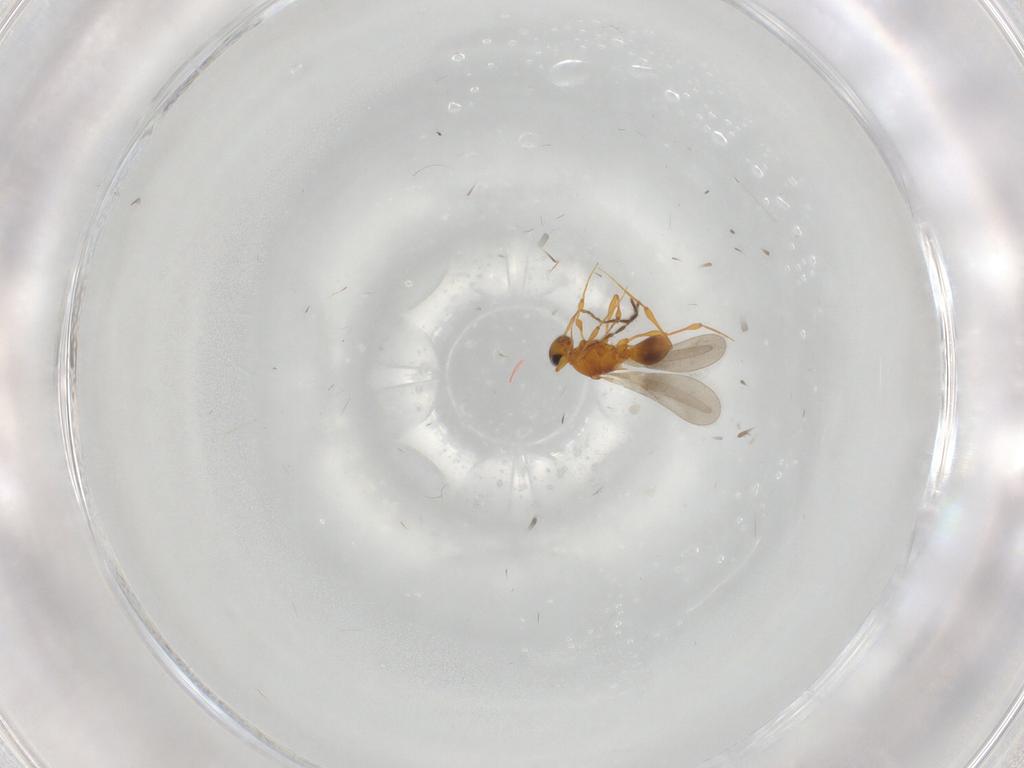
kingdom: Animalia
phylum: Arthropoda
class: Insecta
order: Hymenoptera
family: Platygastridae
